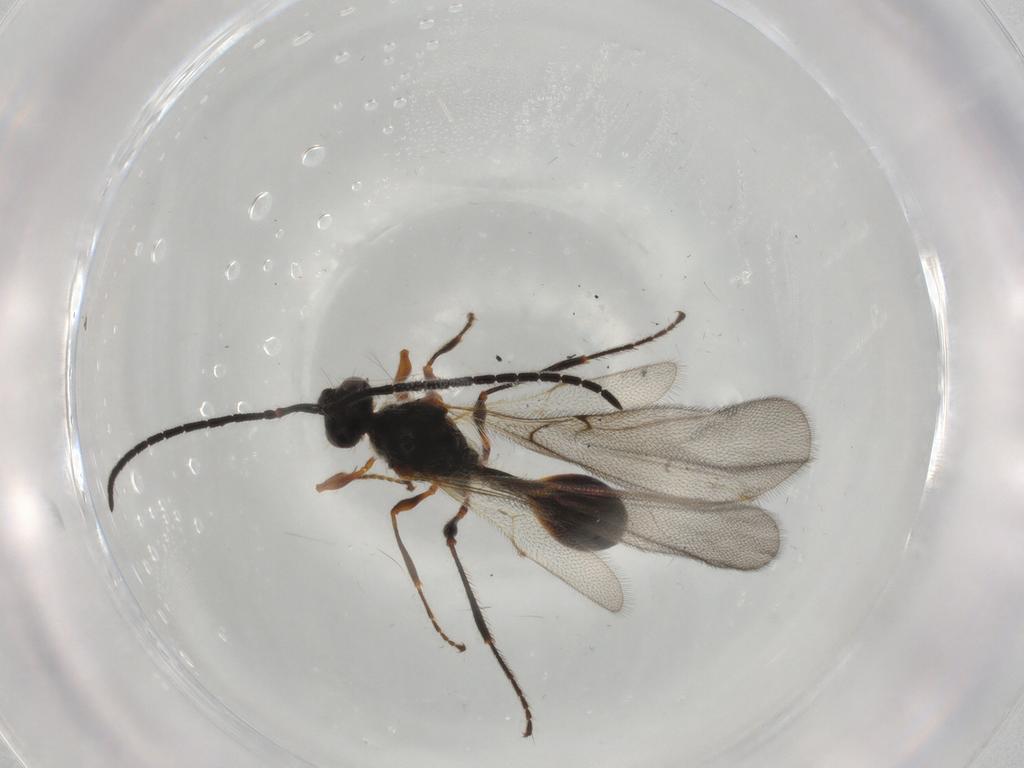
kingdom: Animalia
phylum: Arthropoda
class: Insecta
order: Hymenoptera
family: Diapriidae
